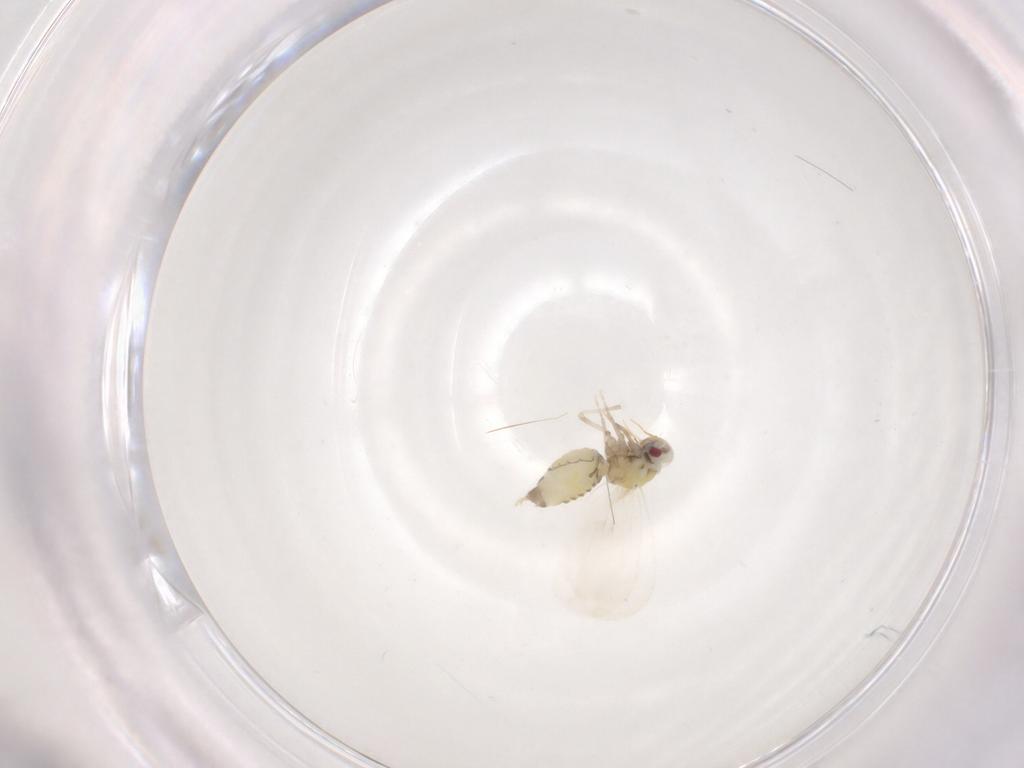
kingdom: Animalia
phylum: Arthropoda
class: Insecta
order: Hemiptera
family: Aleyrodidae
